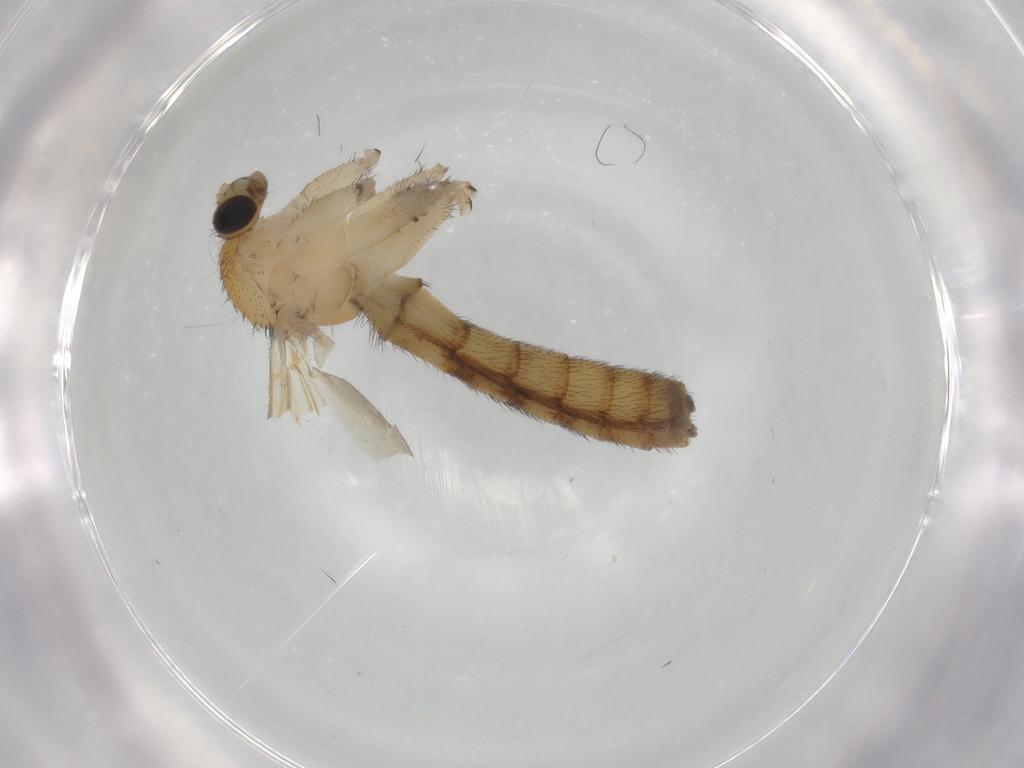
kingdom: Animalia
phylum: Arthropoda
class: Insecta
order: Diptera
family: Keroplatidae
